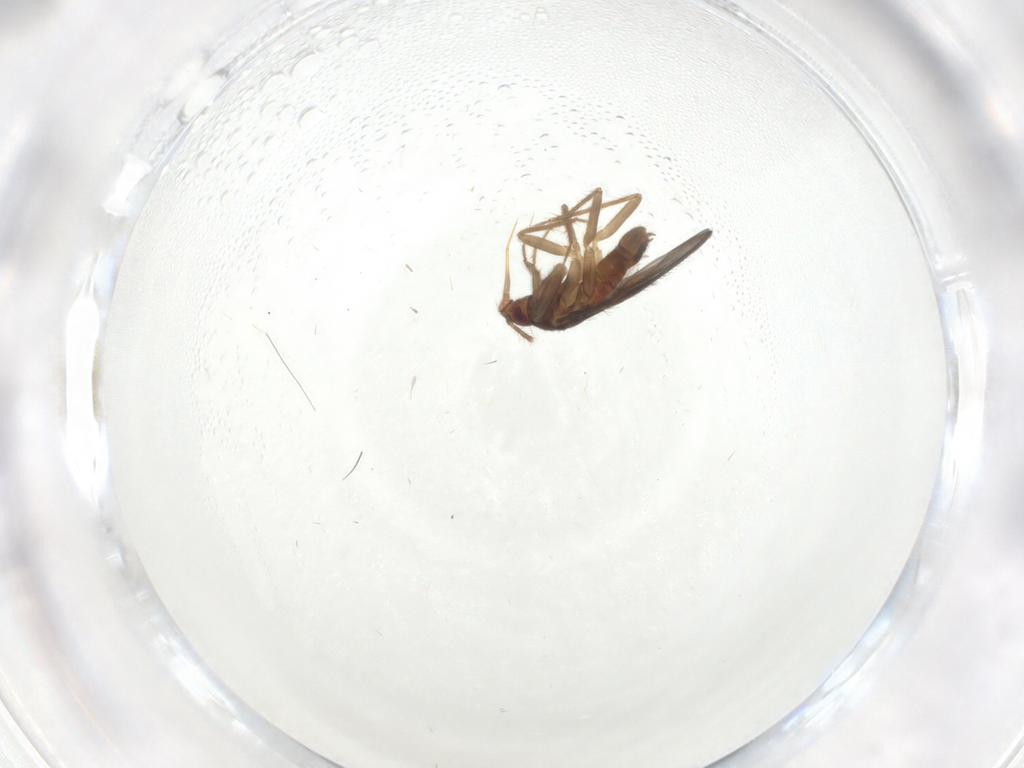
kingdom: Animalia
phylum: Arthropoda
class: Insecta
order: Hemiptera
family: Ceratocombidae
